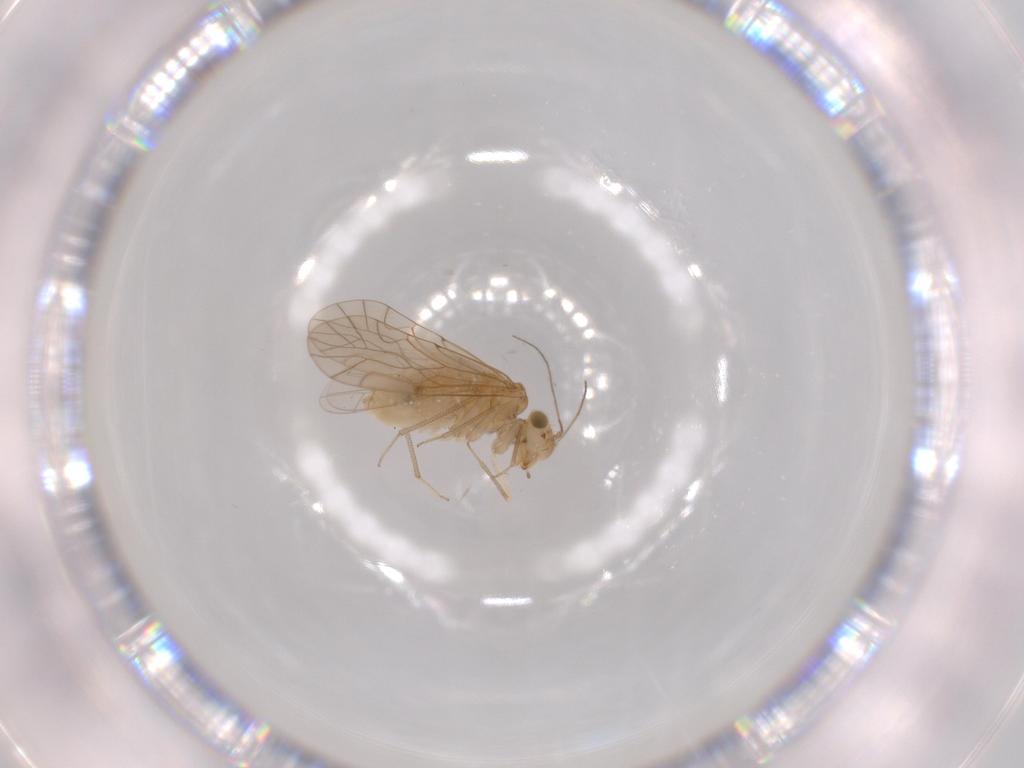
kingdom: Animalia
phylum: Arthropoda
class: Insecta
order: Psocodea
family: Lachesillidae
